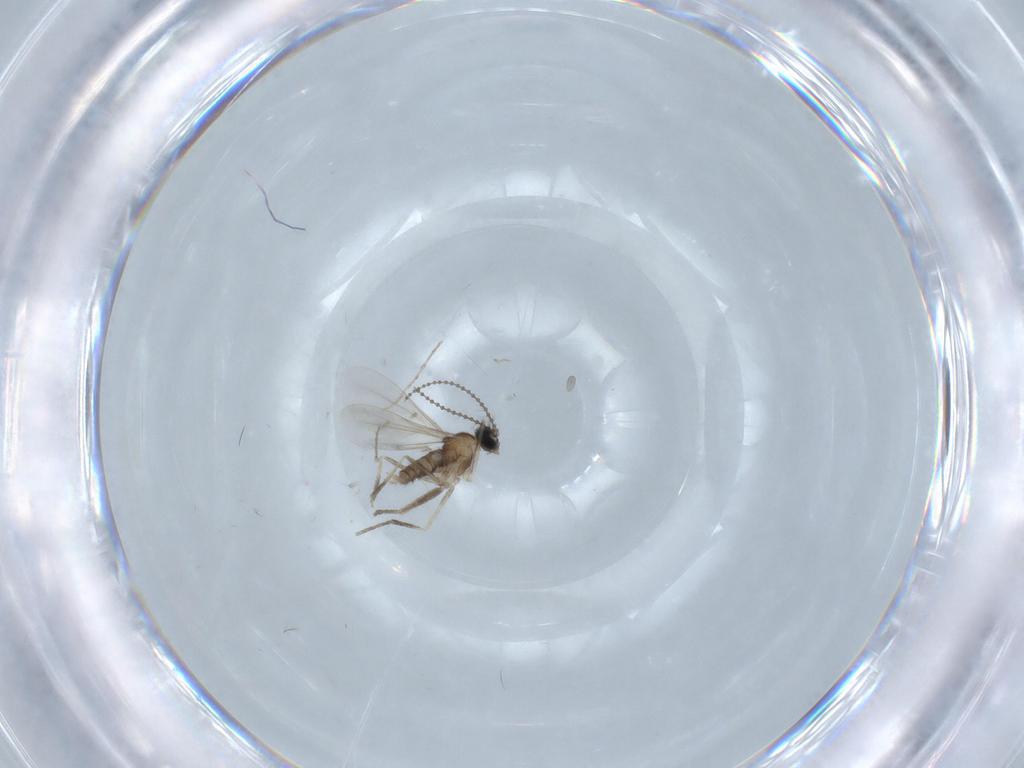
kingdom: Animalia
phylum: Arthropoda
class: Insecta
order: Diptera
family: Cecidomyiidae
